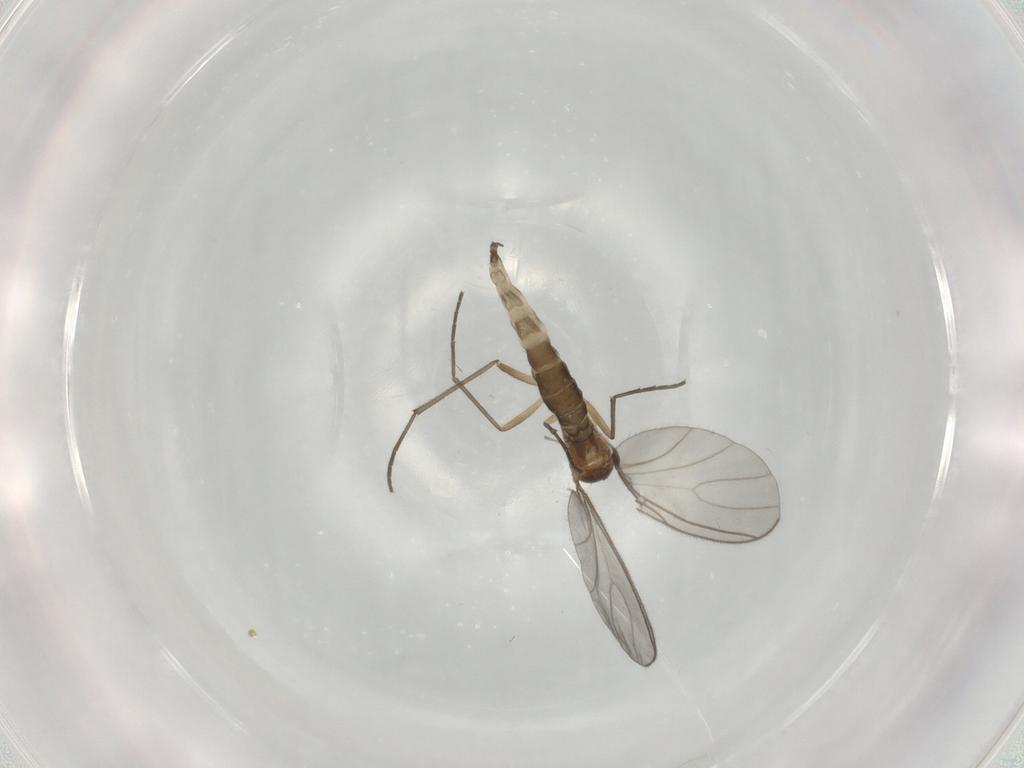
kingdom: Animalia
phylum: Arthropoda
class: Insecta
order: Diptera
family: Sciaridae
